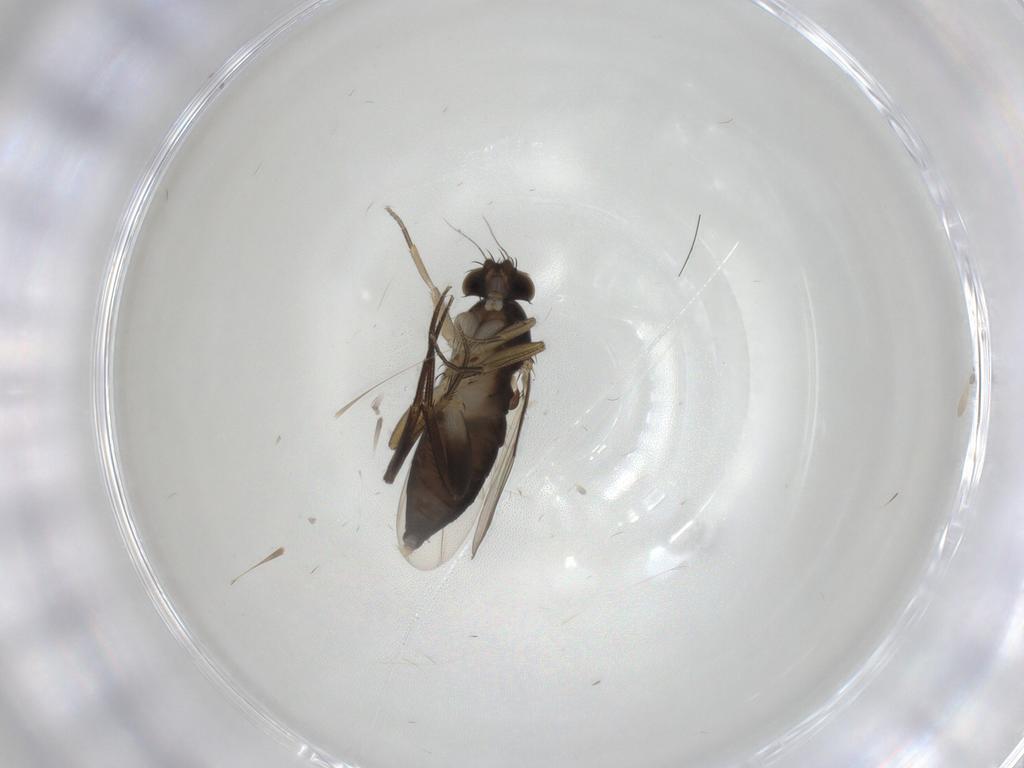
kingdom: Animalia
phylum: Arthropoda
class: Insecta
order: Diptera
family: Phoridae
